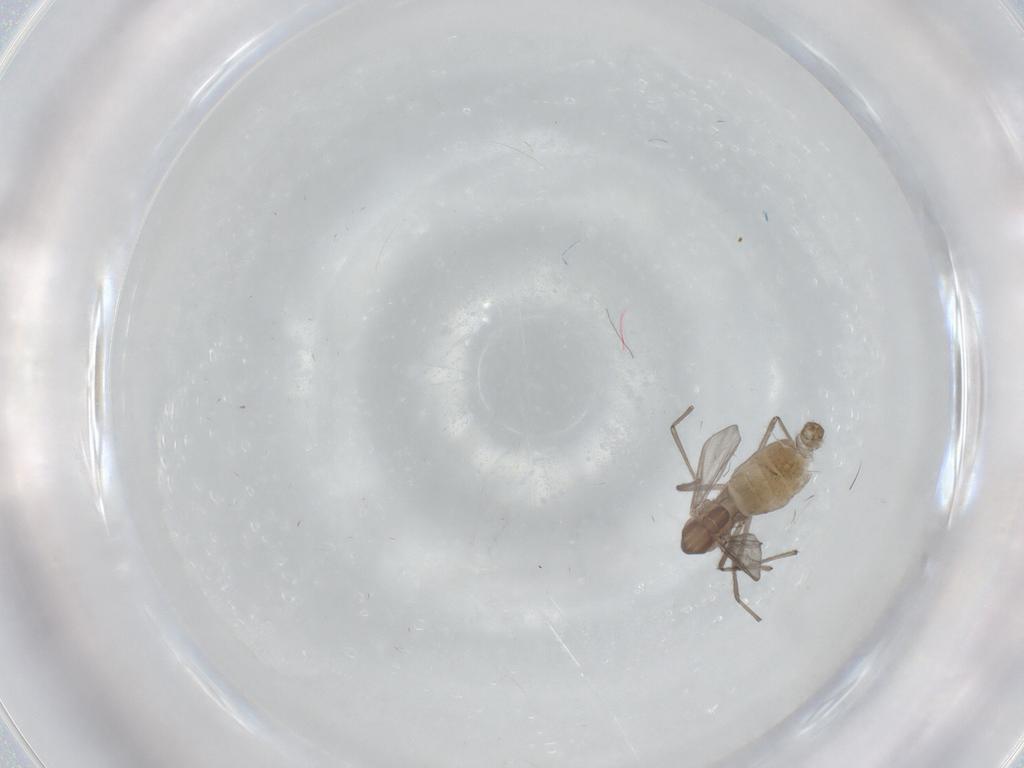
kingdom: Animalia
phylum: Arthropoda
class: Insecta
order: Diptera
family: Chironomidae
